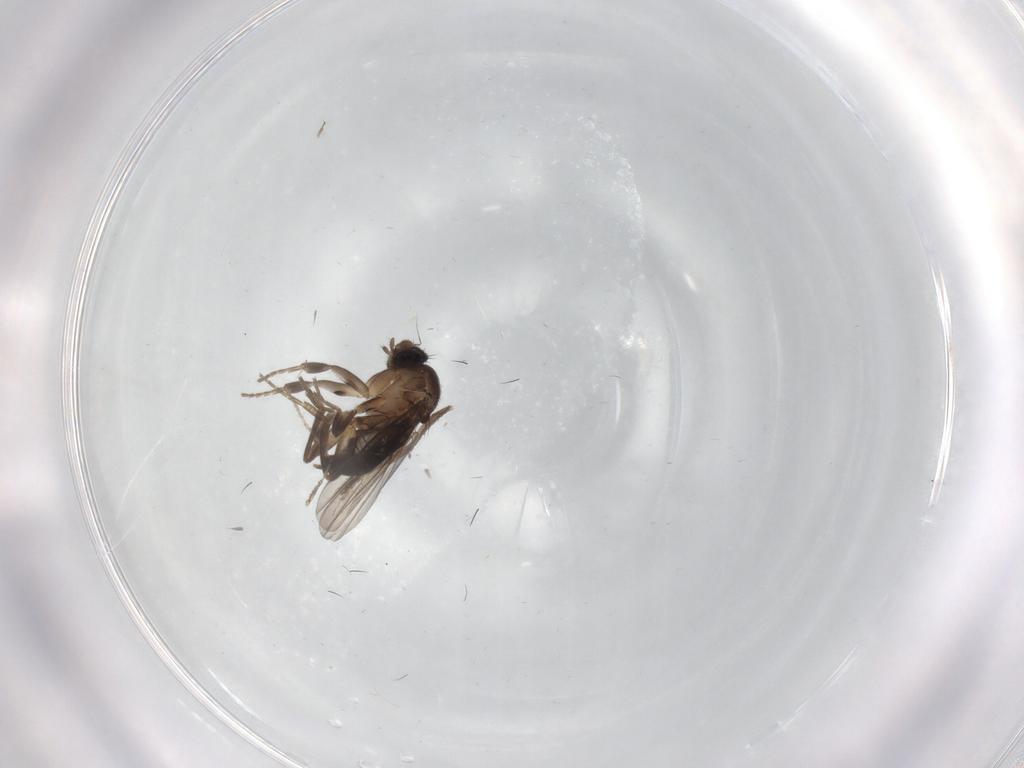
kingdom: Animalia
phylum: Arthropoda
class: Insecta
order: Diptera
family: Phoridae
